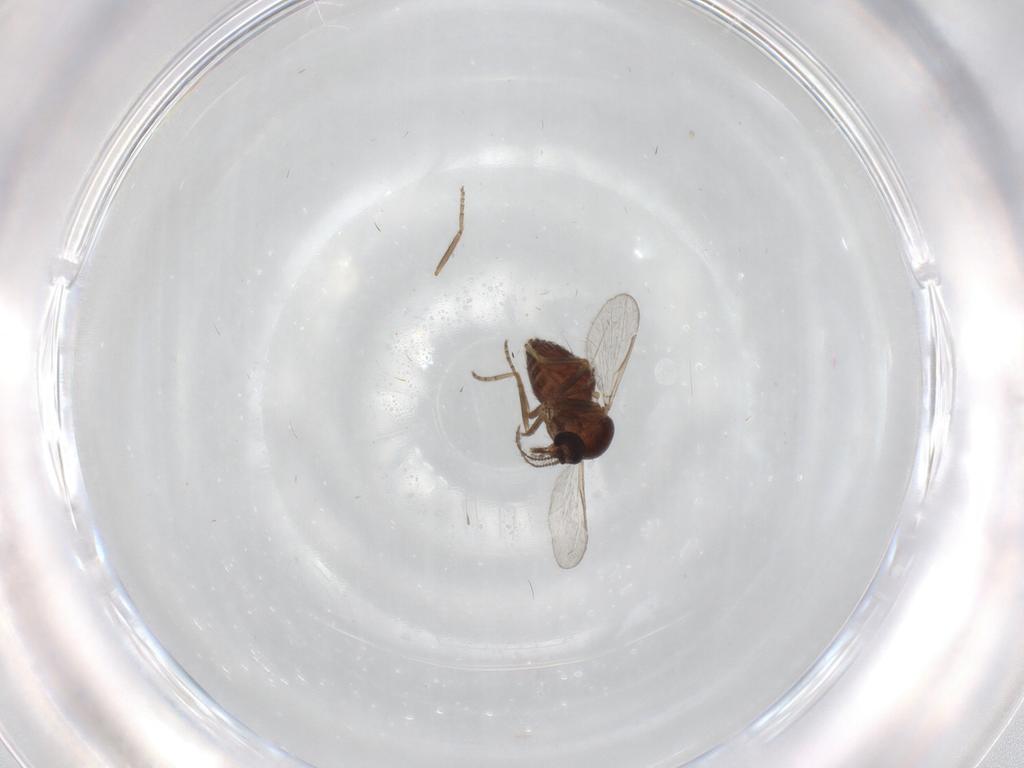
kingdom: Animalia
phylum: Arthropoda
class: Insecta
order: Diptera
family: Ceratopogonidae
